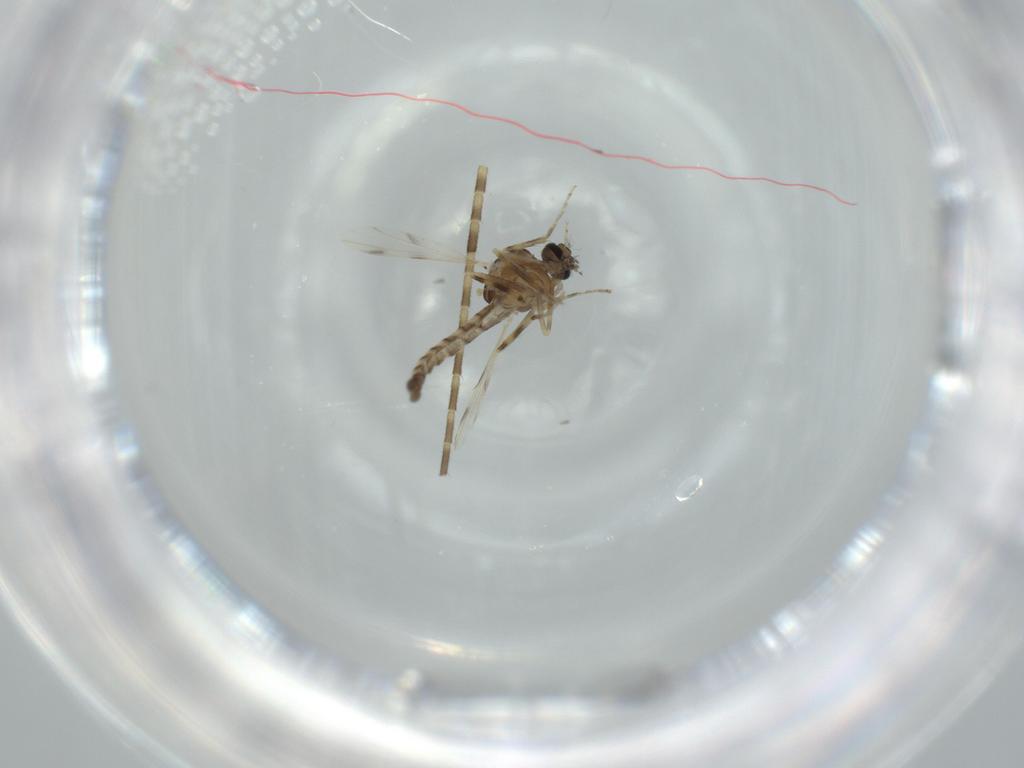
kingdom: Animalia
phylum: Arthropoda
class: Insecta
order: Diptera
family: Ceratopogonidae
